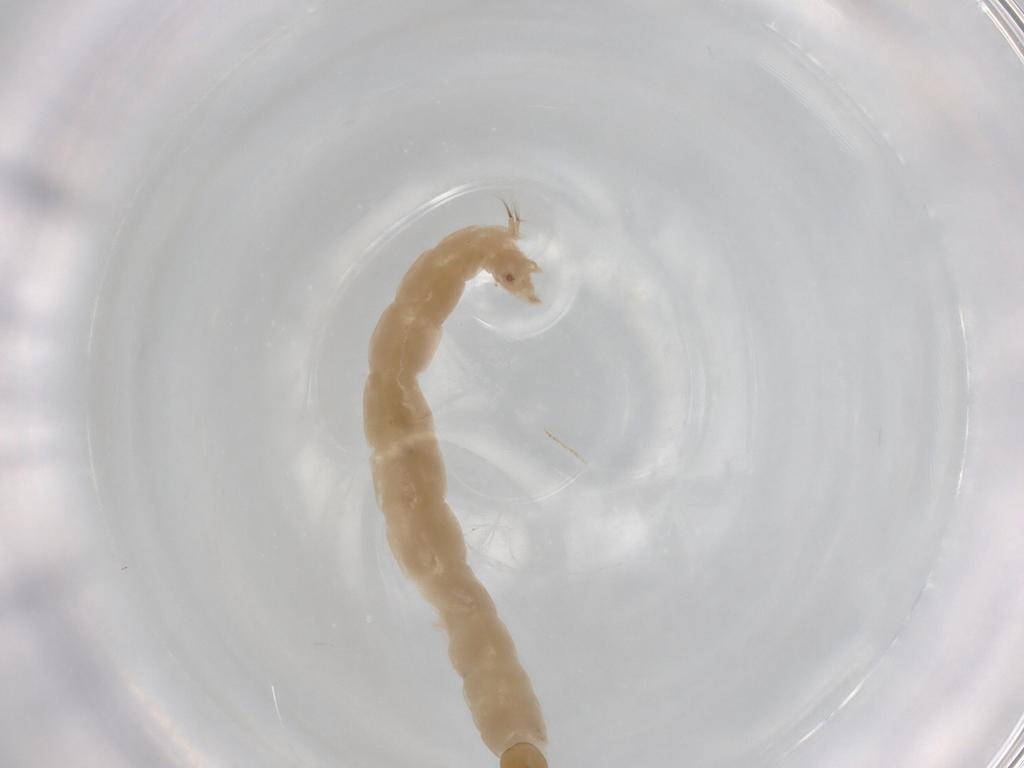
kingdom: Animalia
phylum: Arthropoda
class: Insecta
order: Diptera
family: Chironomidae
